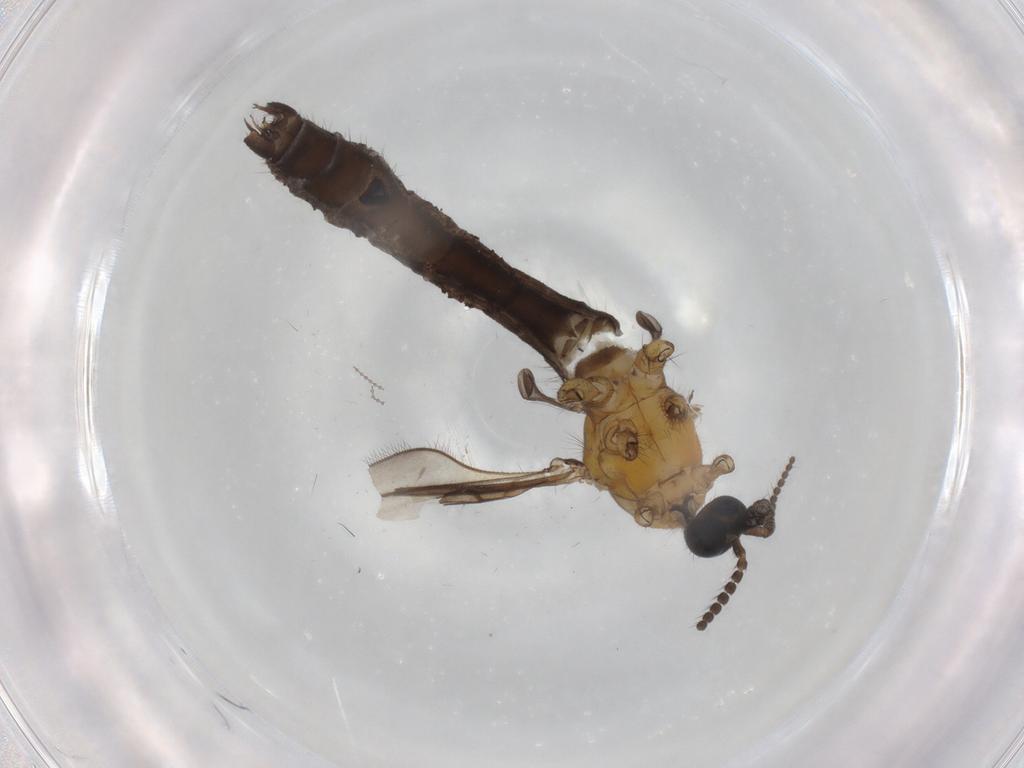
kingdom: Animalia
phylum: Arthropoda
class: Insecta
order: Diptera
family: Limoniidae
